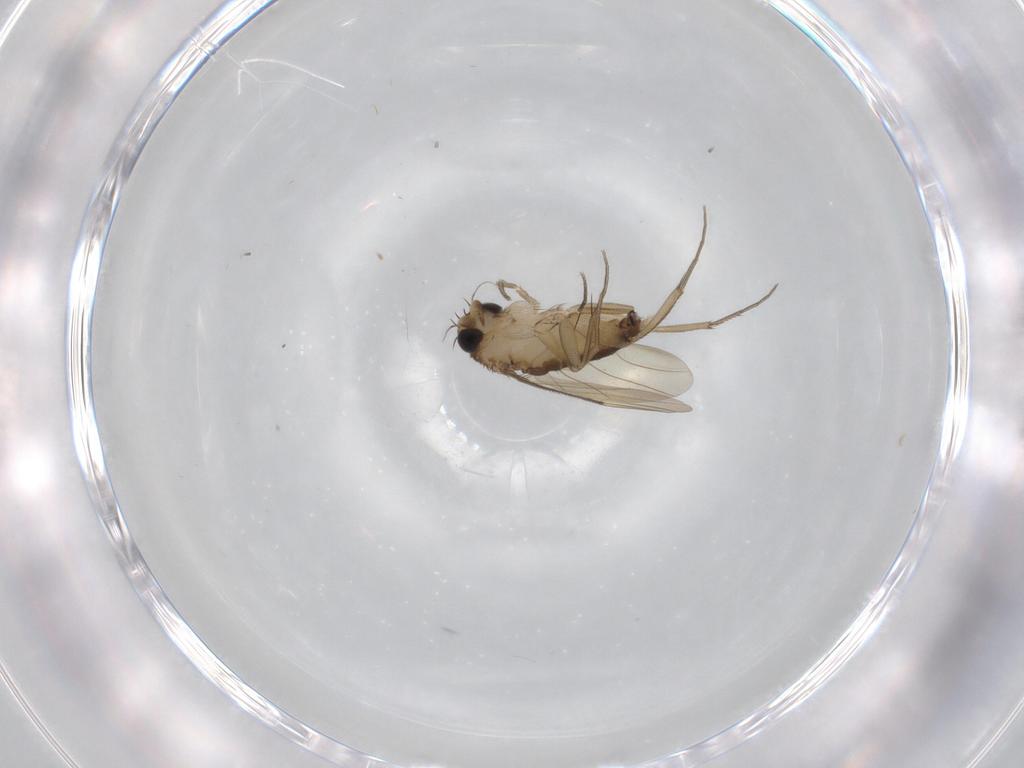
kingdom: Animalia
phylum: Arthropoda
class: Insecta
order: Diptera
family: Phoridae
